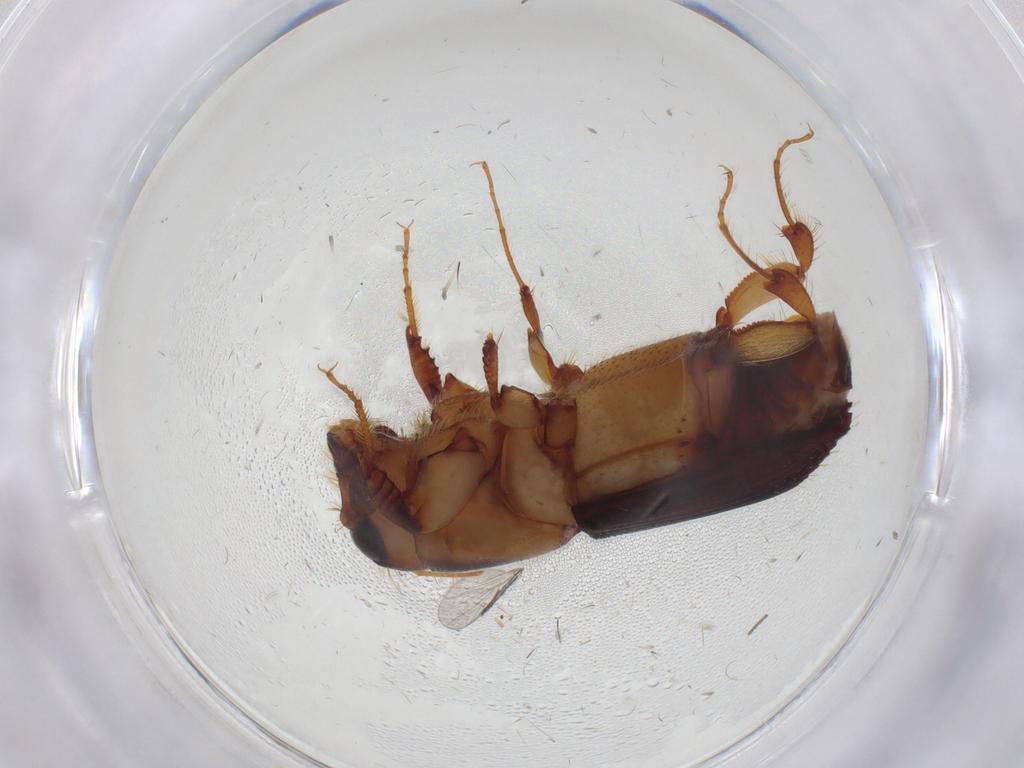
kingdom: Animalia
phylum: Arthropoda
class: Insecta
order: Coleoptera
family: Curculionidae
